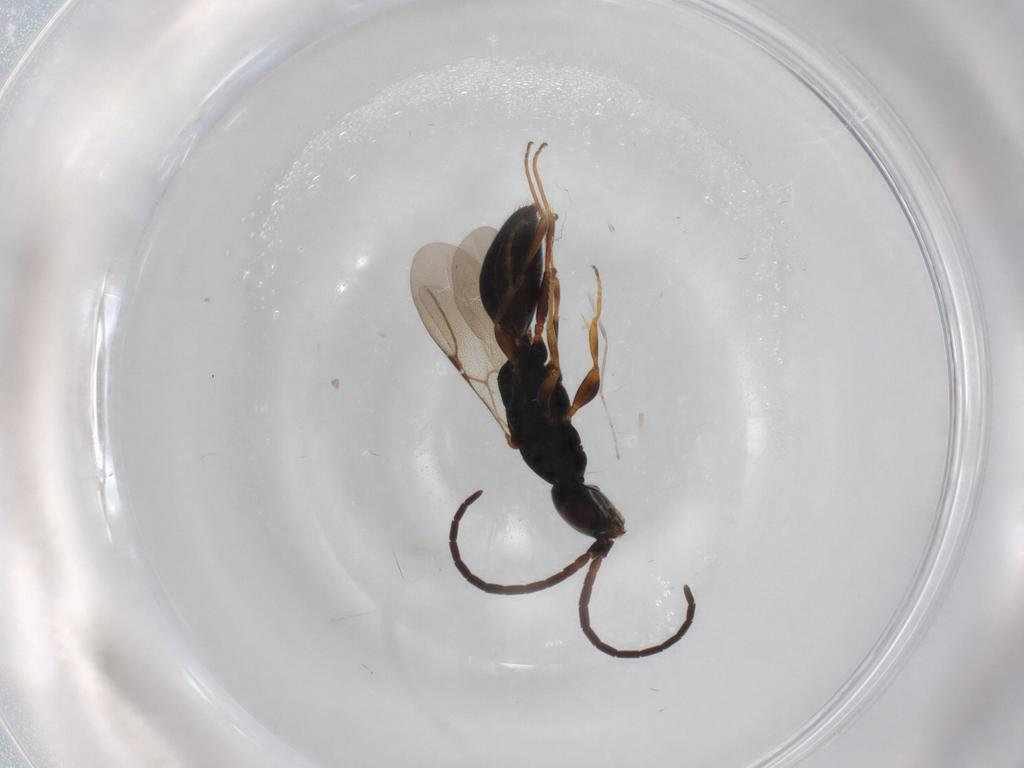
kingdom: Animalia
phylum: Arthropoda
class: Insecta
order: Hymenoptera
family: Bethylidae
